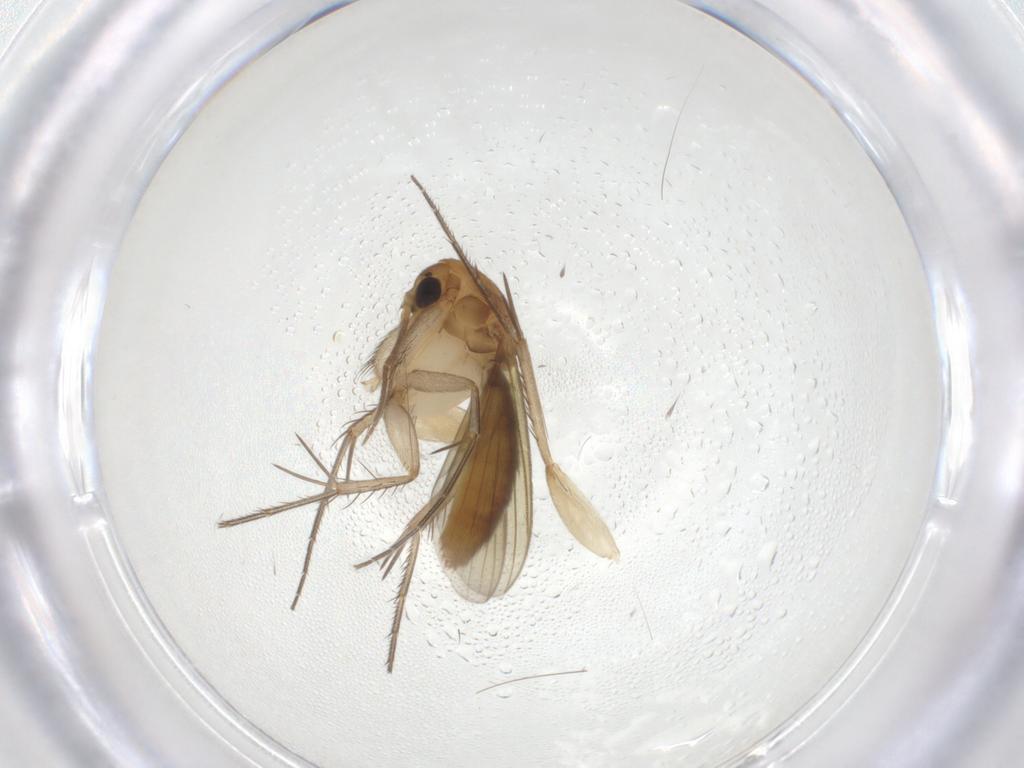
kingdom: Animalia
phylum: Arthropoda
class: Insecta
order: Diptera
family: Mycetophilidae
